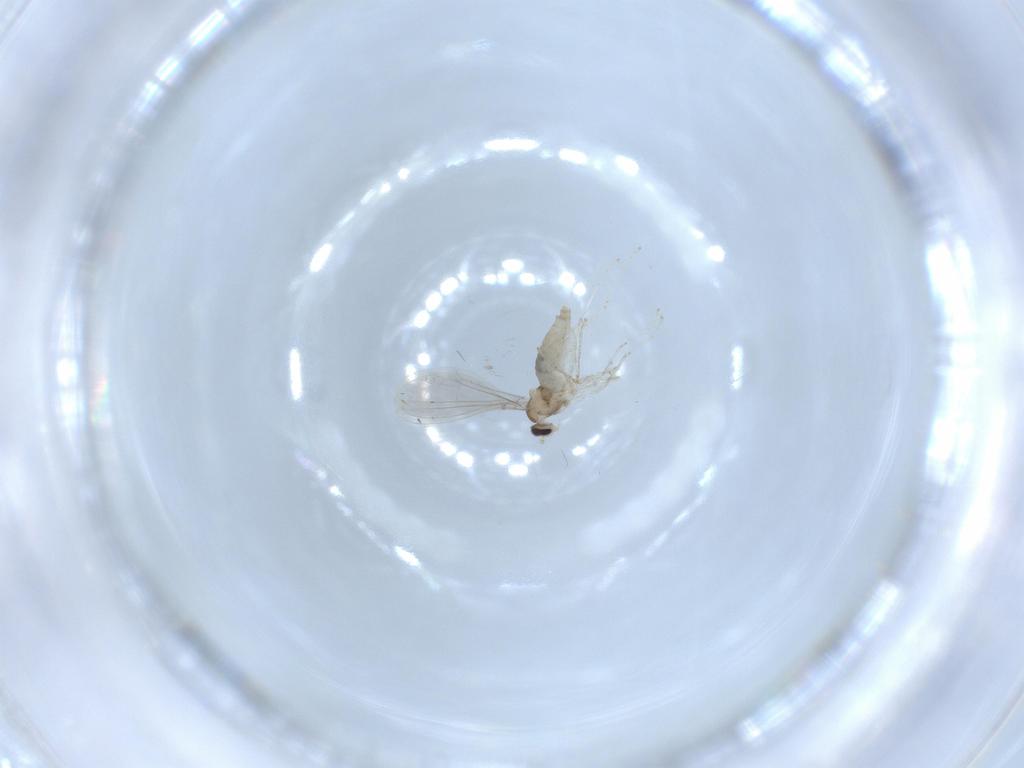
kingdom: Animalia
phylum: Arthropoda
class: Insecta
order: Diptera
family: Cecidomyiidae
